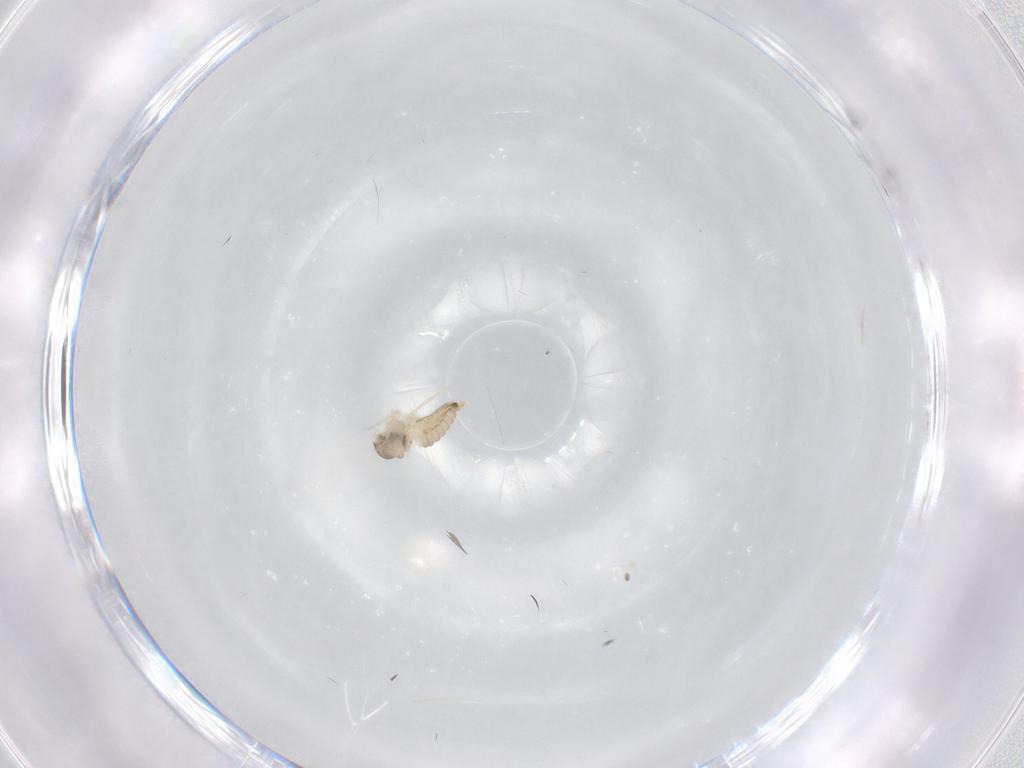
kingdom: Animalia
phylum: Arthropoda
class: Insecta
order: Diptera
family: Cecidomyiidae
